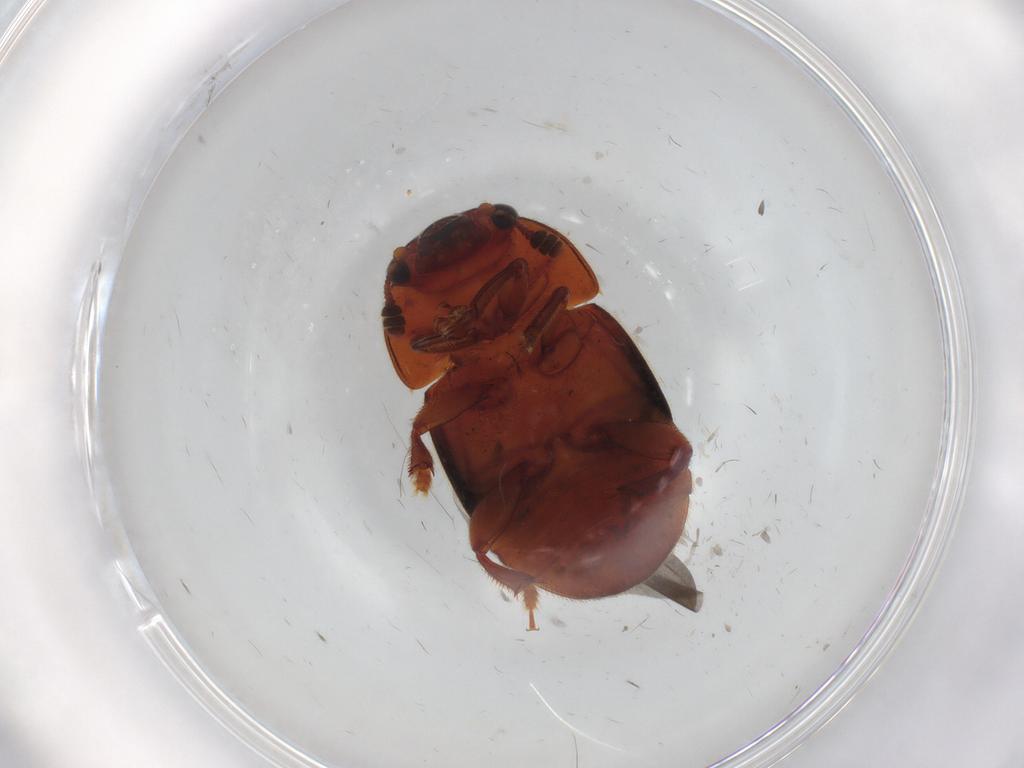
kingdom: Animalia
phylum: Arthropoda
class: Insecta
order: Coleoptera
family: Nitidulidae
